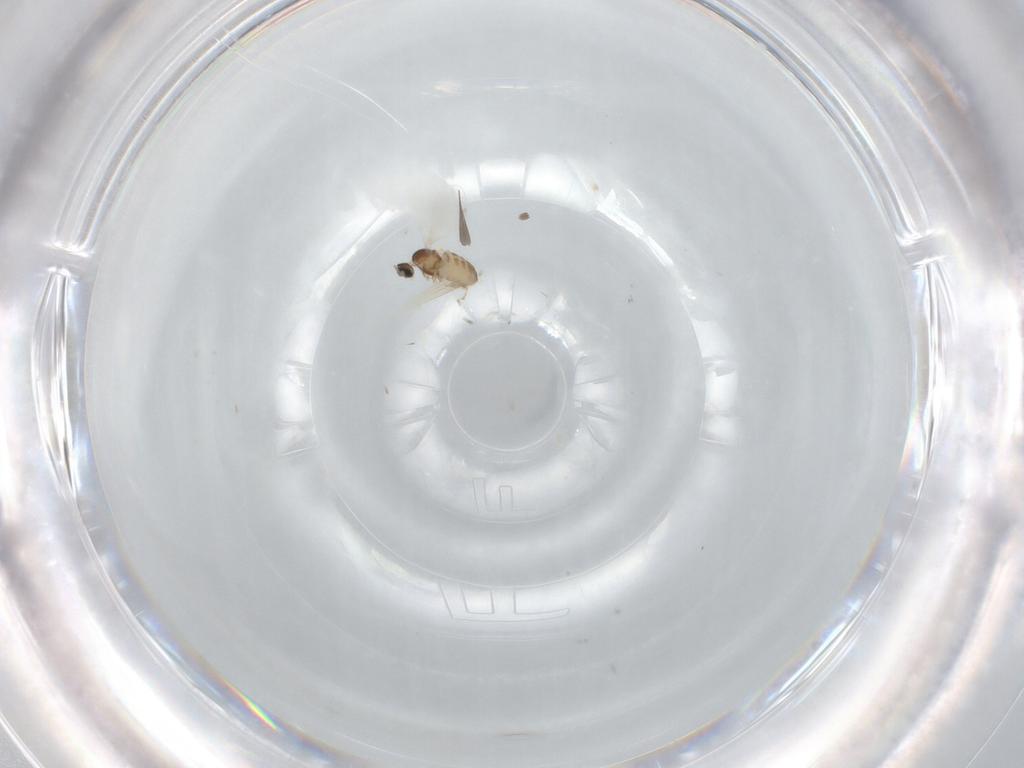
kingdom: Animalia
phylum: Arthropoda
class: Insecta
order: Diptera
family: Cecidomyiidae
